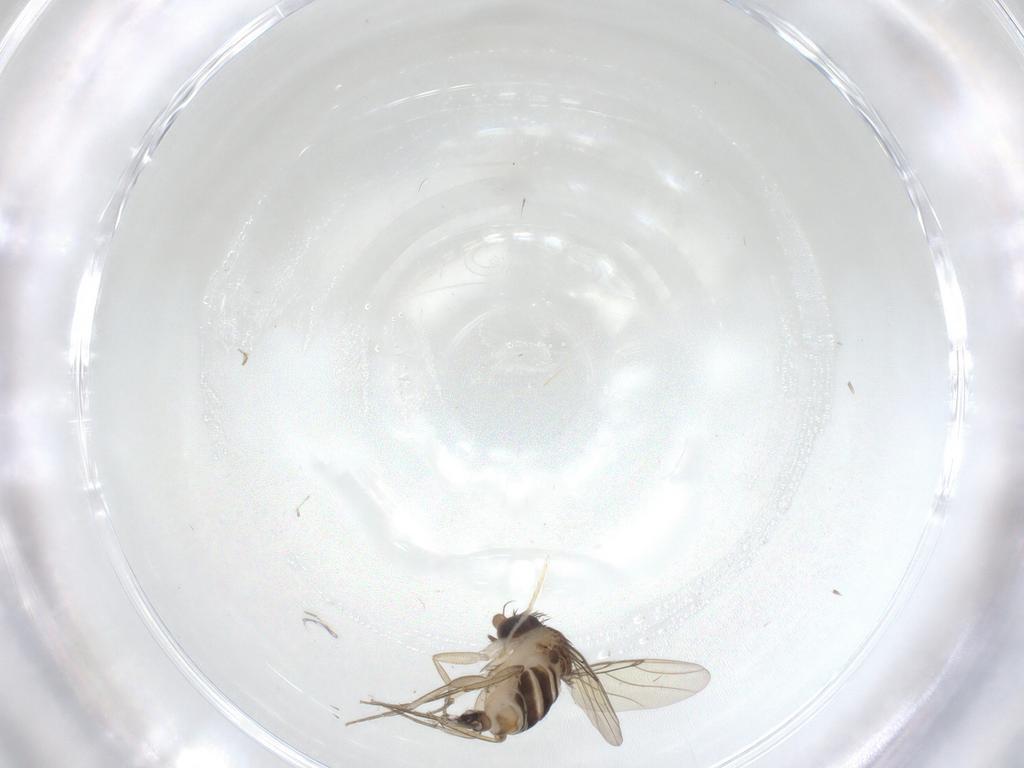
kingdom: Animalia
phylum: Arthropoda
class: Insecta
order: Diptera
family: Phoridae
